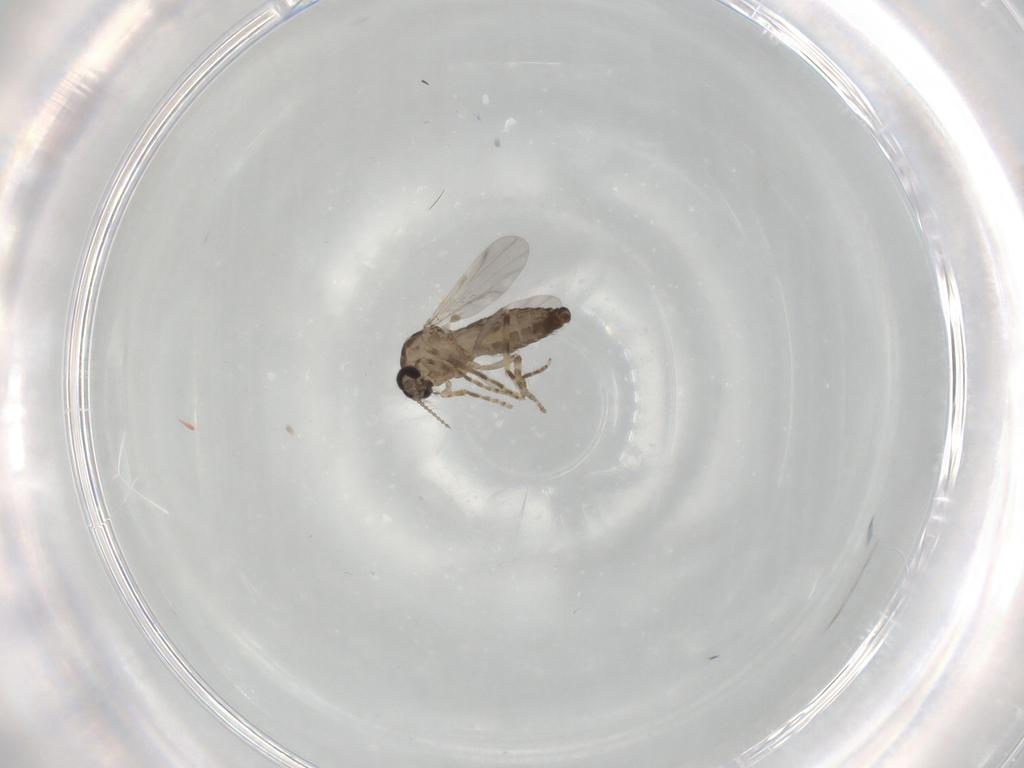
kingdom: Animalia
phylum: Arthropoda
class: Insecta
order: Diptera
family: Ceratopogonidae
